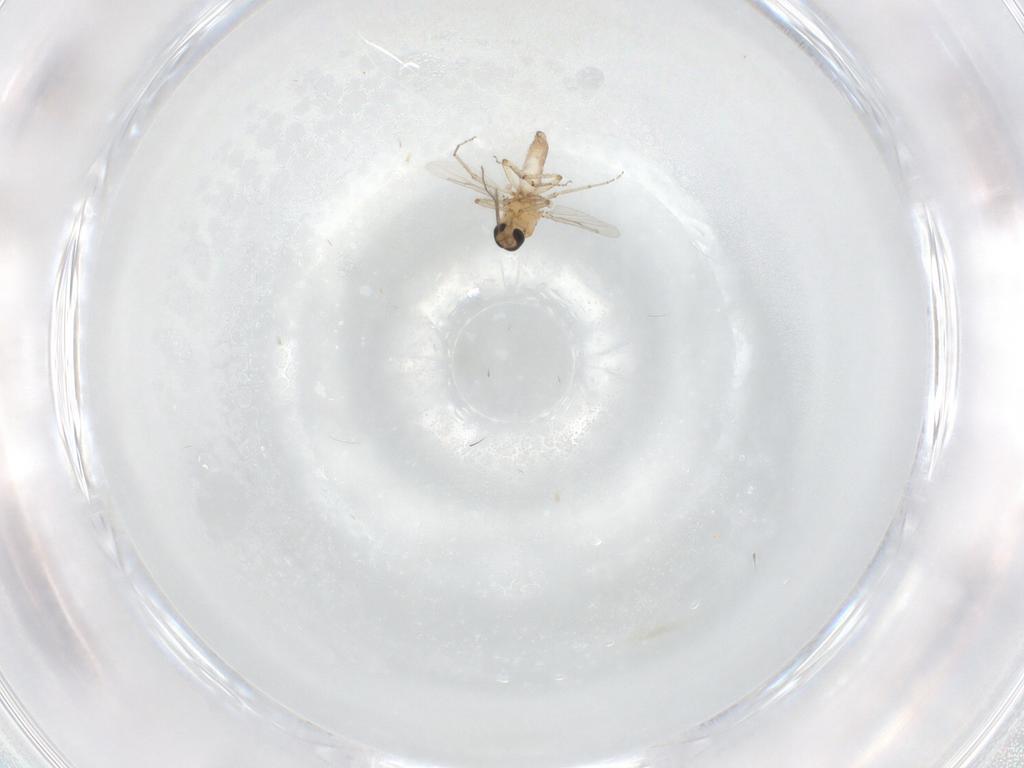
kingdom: Animalia
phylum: Arthropoda
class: Insecta
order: Diptera
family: Ceratopogonidae
